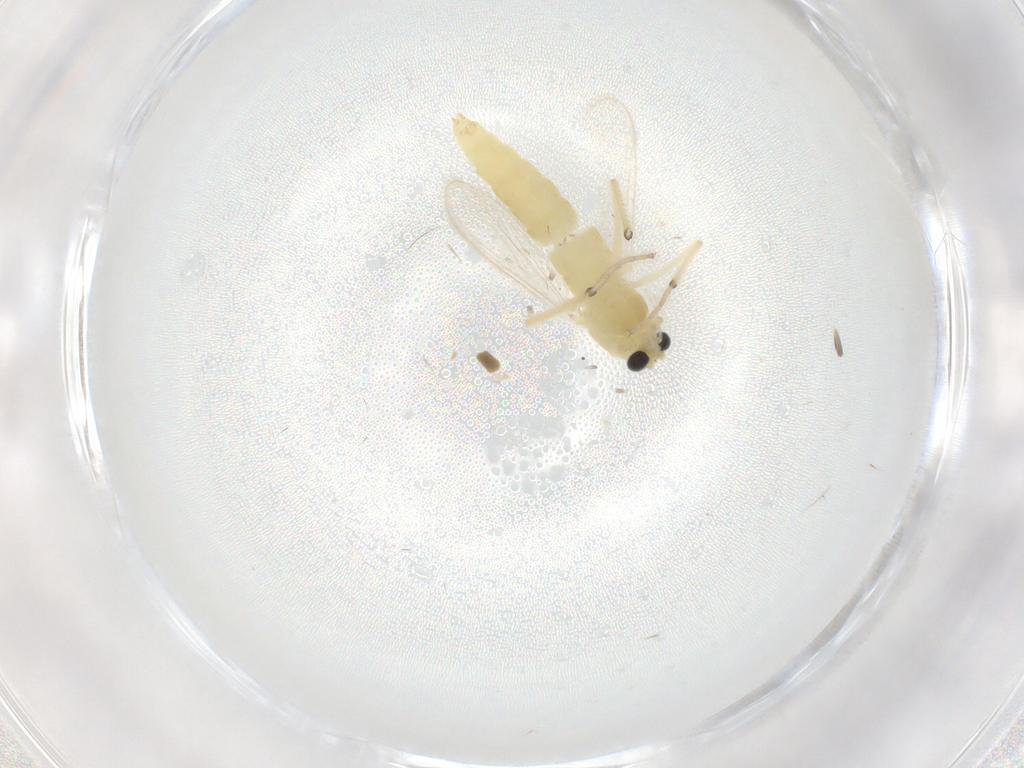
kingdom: Animalia
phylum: Arthropoda
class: Insecta
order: Diptera
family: Chironomidae
